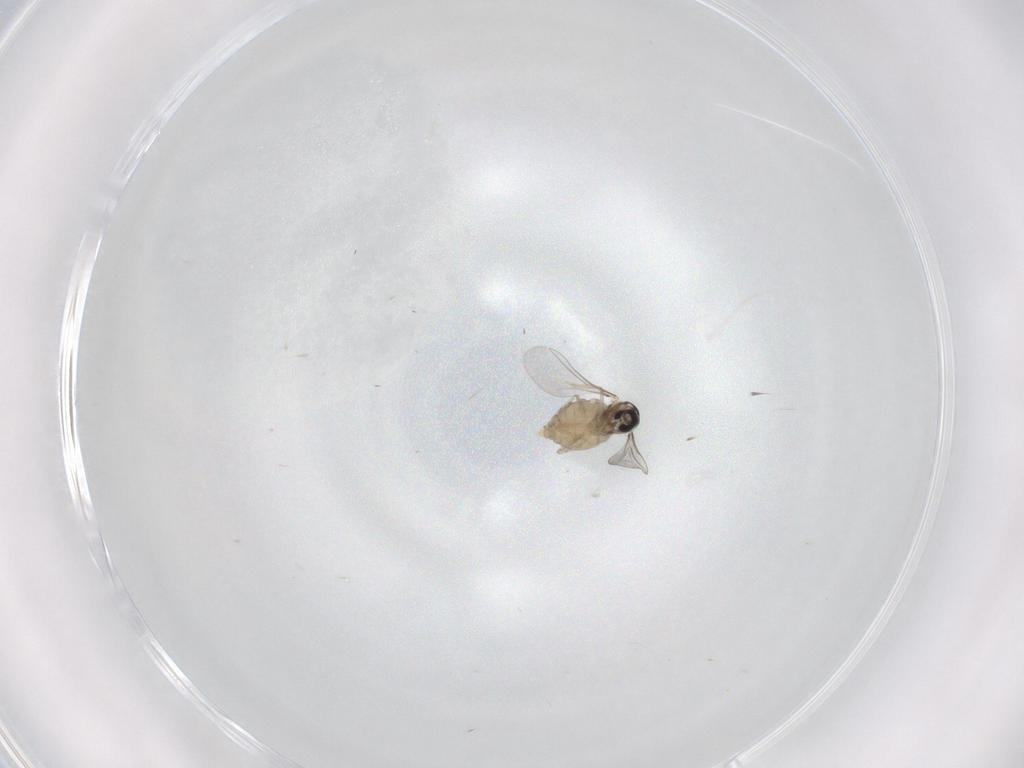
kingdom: Animalia
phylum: Arthropoda
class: Insecta
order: Diptera
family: Cecidomyiidae
